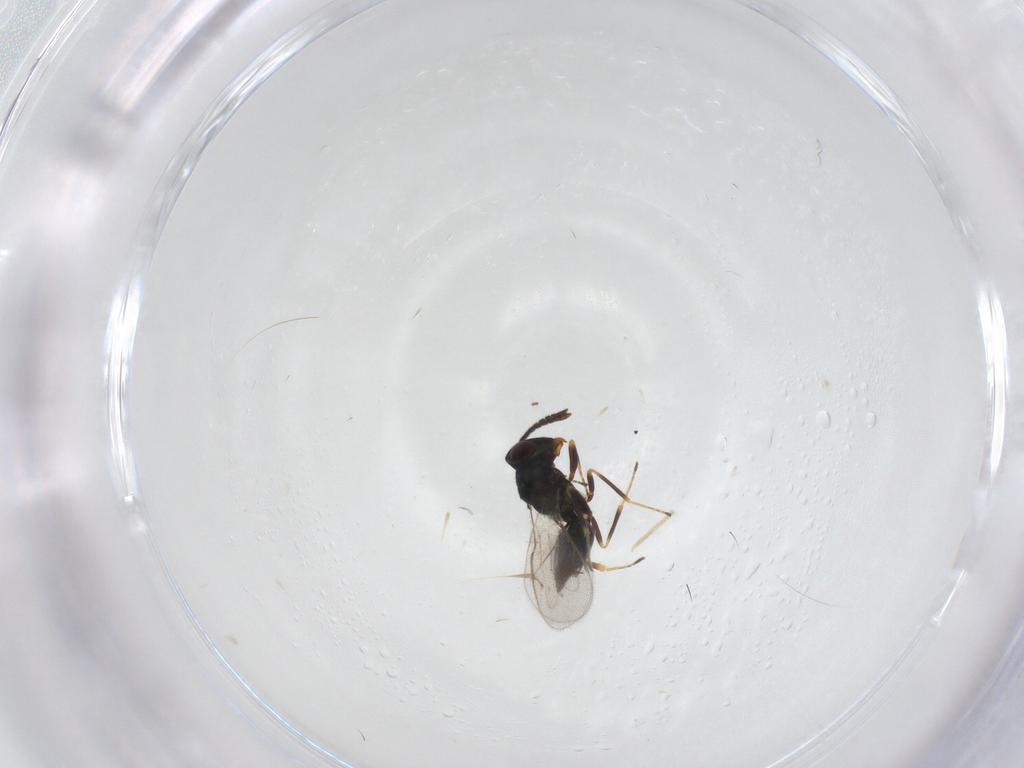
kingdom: Animalia
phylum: Arthropoda
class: Insecta
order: Hymenoptera
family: Pteromalidae
